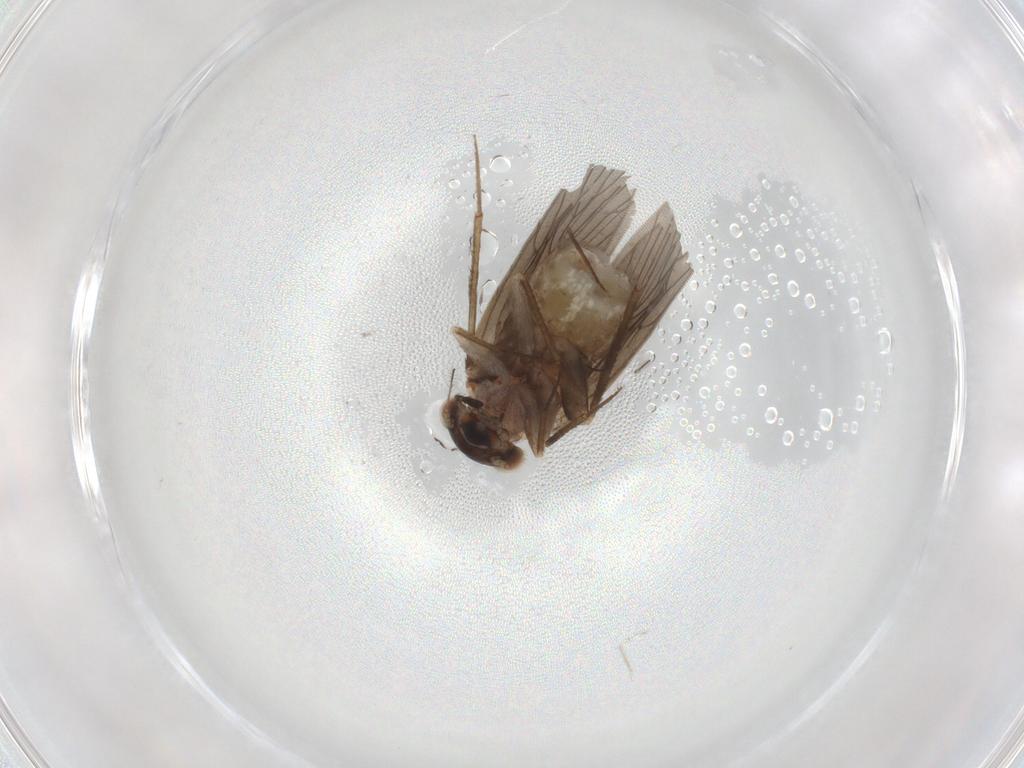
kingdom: Animalia
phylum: Arthropoda
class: Insecta
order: Psocodea
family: Lepidopsocidae
